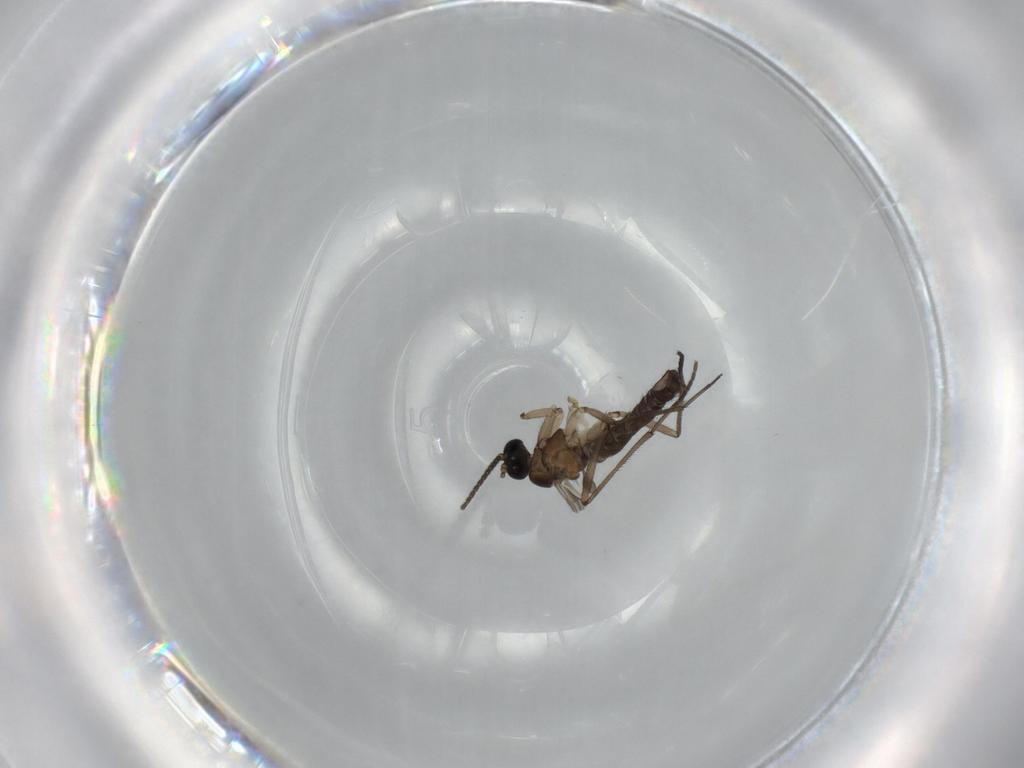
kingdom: Animalia
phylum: Arthropoda
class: Insecta
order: Diptera
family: Sciaridae
